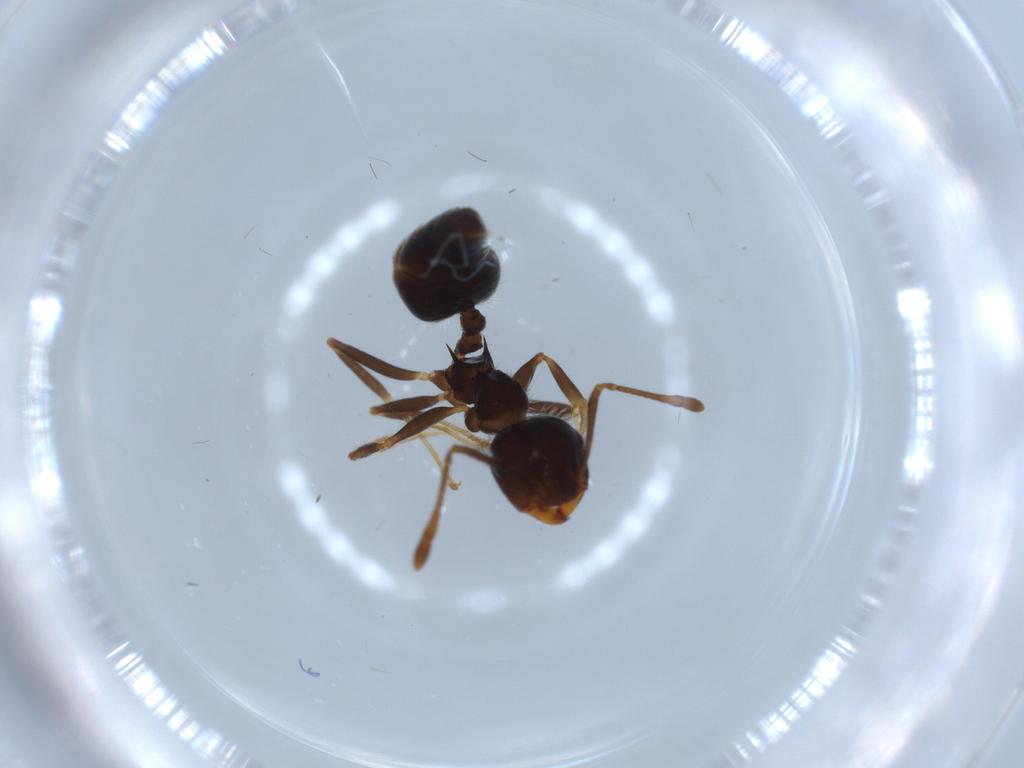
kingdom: Animalia
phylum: Arthropoda
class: Insecta
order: Hymenoptera
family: Formicidae
